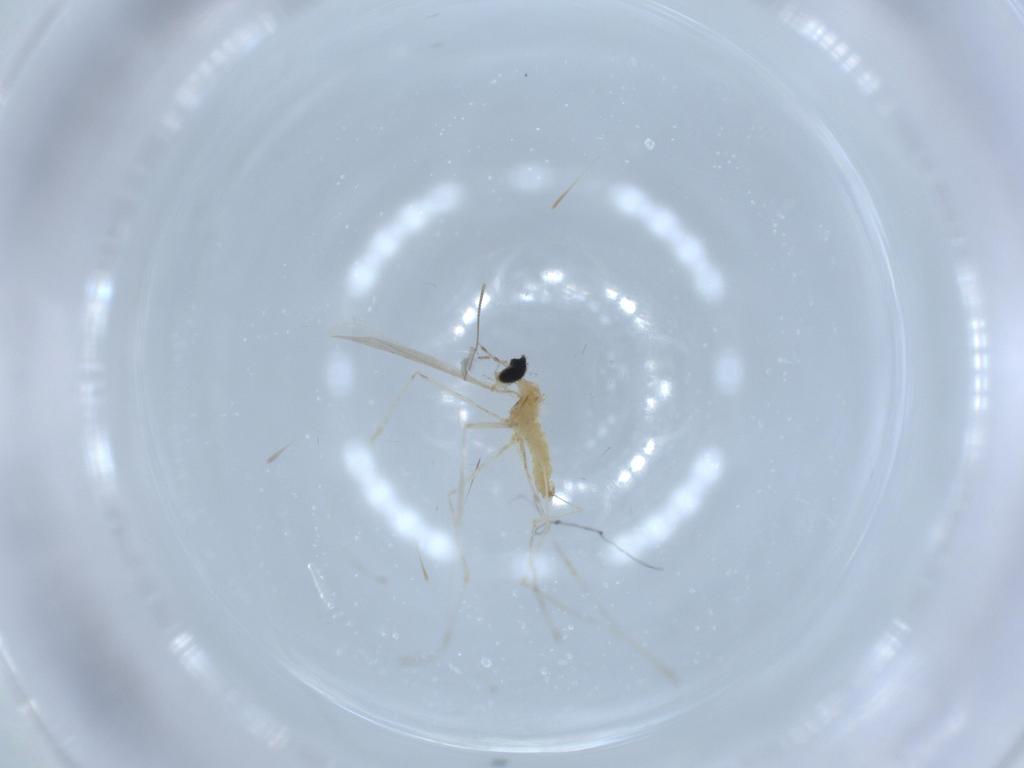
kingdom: Animalia
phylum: Arthropoda
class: Insecta
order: Diptera
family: Cecidomyiidae
